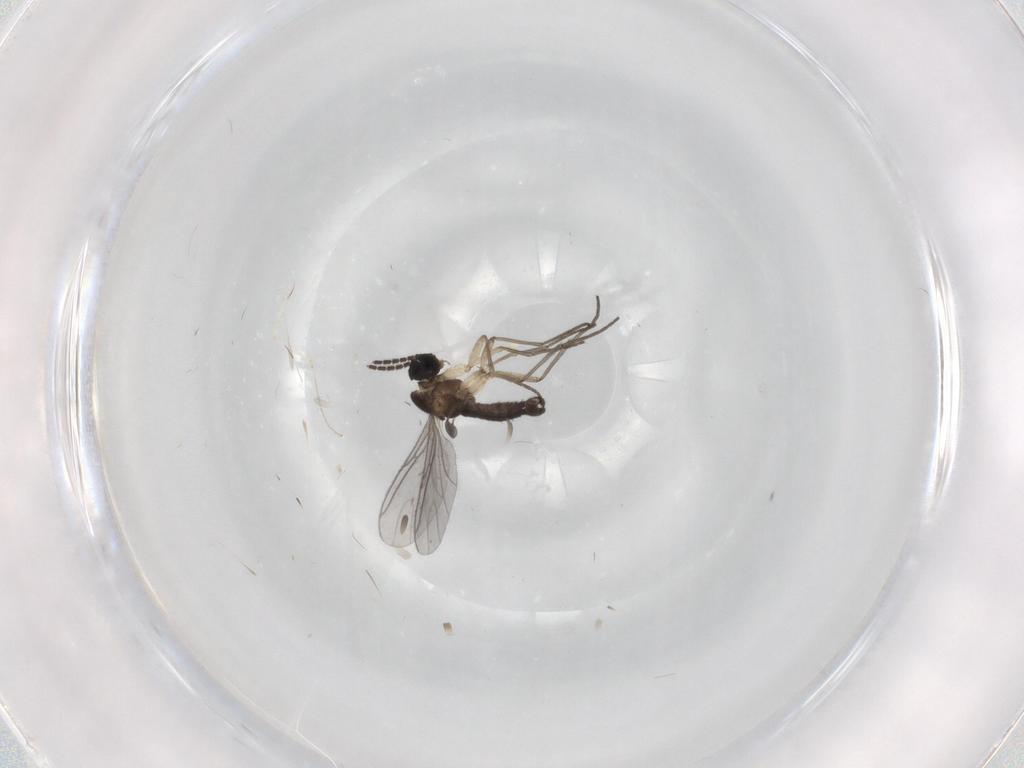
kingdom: Animalia
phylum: Arthropoda
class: Insecta
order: Diptera
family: Sciaridae
